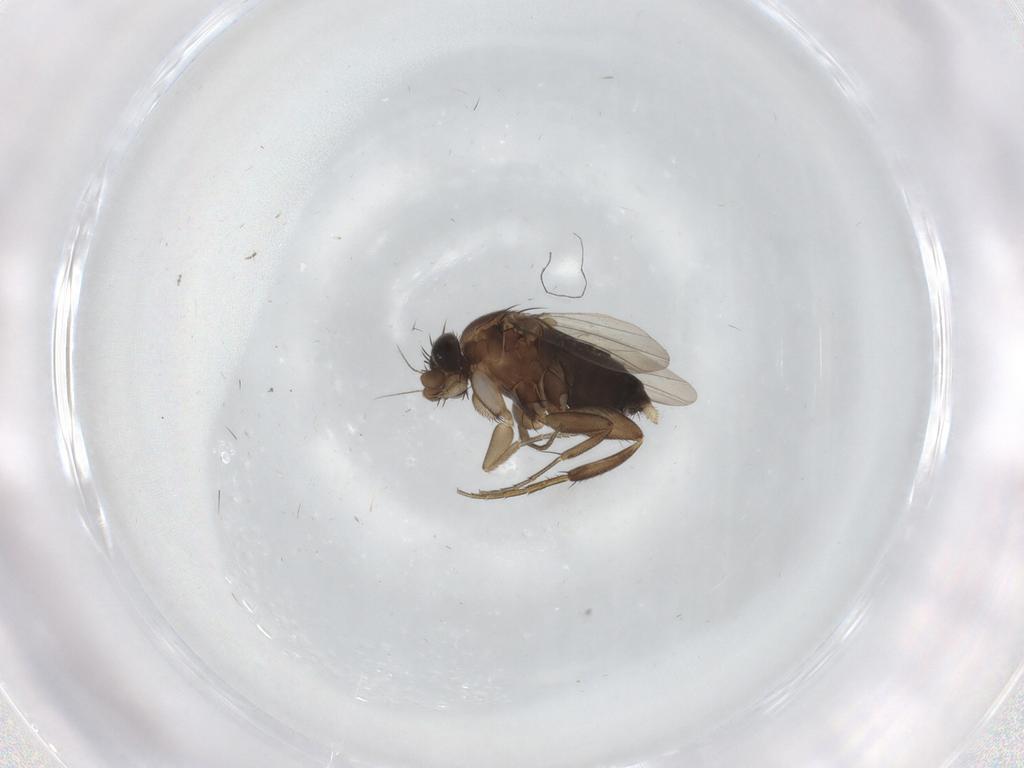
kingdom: Animalia
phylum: Arthropoda
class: Insecta
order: Diptera
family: Phoridae
